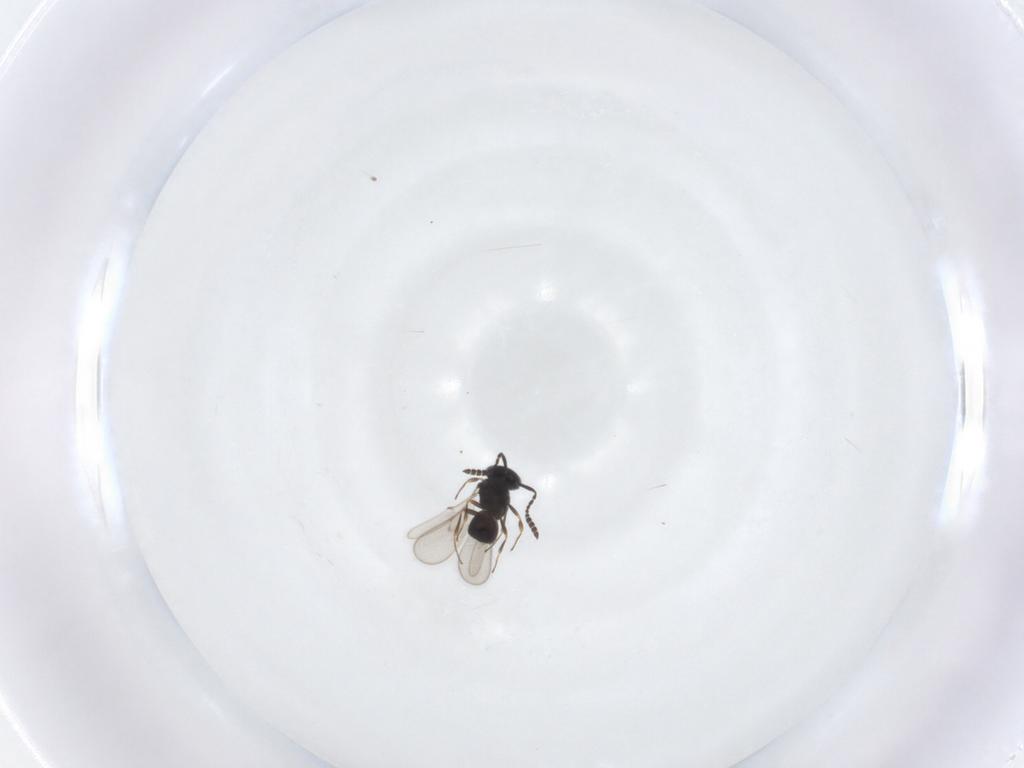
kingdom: Animalia
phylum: Arthropoda
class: Insecta
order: Hymenoptera
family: Scelionidae
